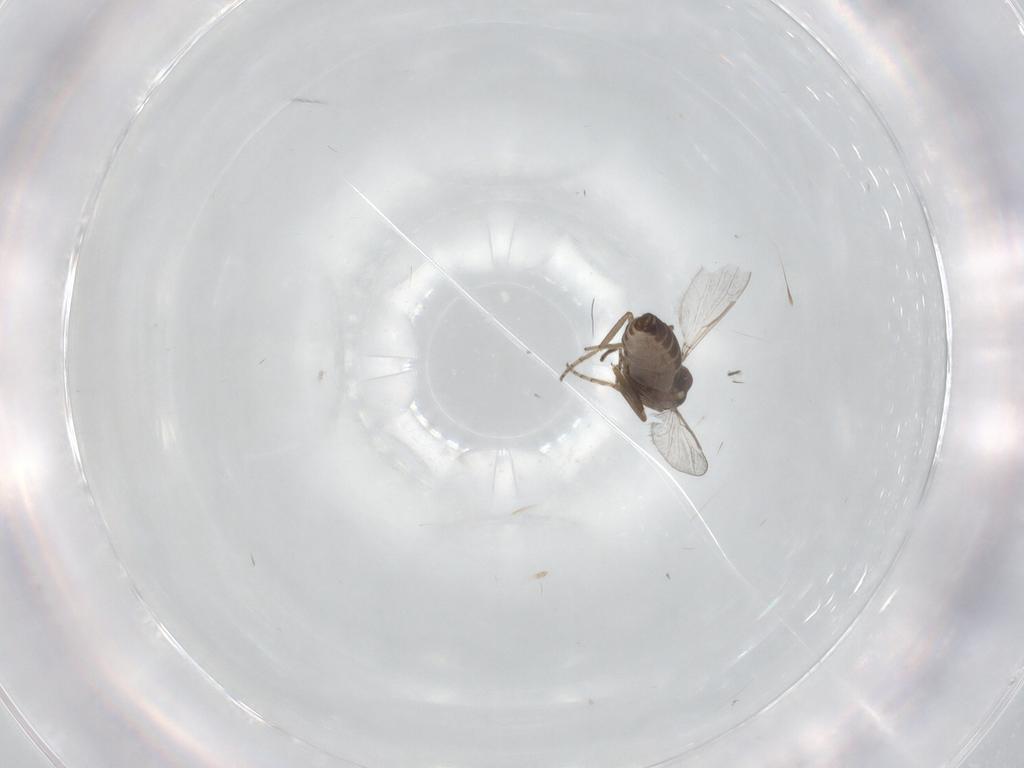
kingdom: Animalia
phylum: Arthropoda
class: Insecta
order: Diptera
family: Ceratopogonidae
